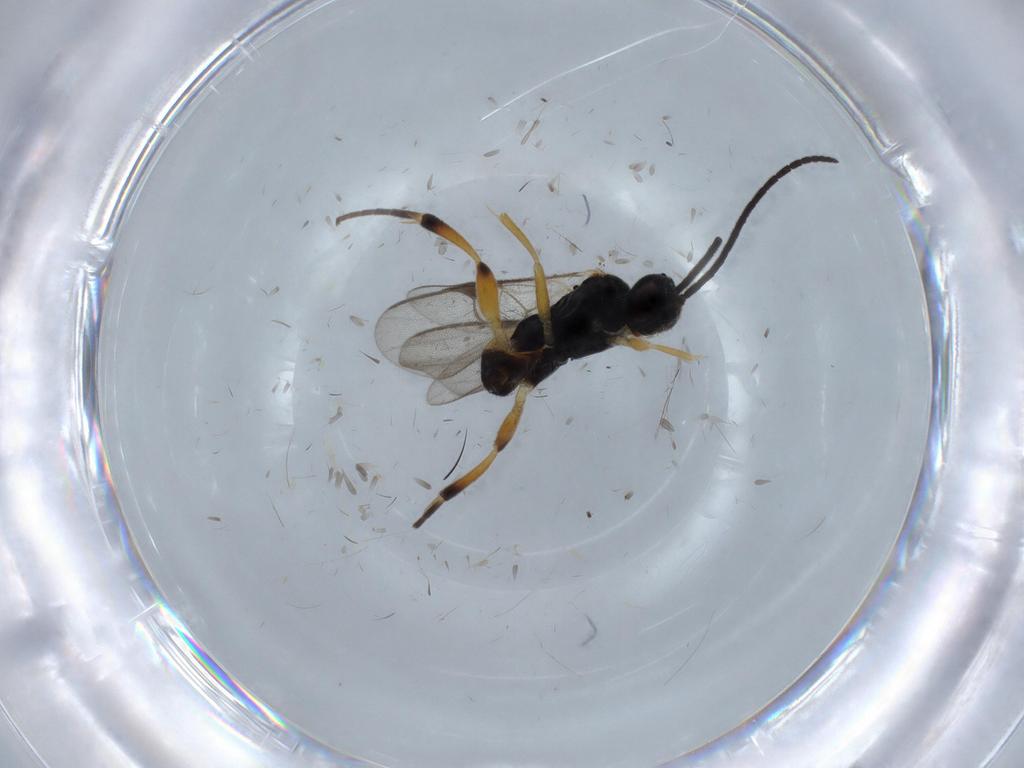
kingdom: Animalia
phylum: Arthropoda
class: Insecta
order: Hymenoptera
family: Braconidae
